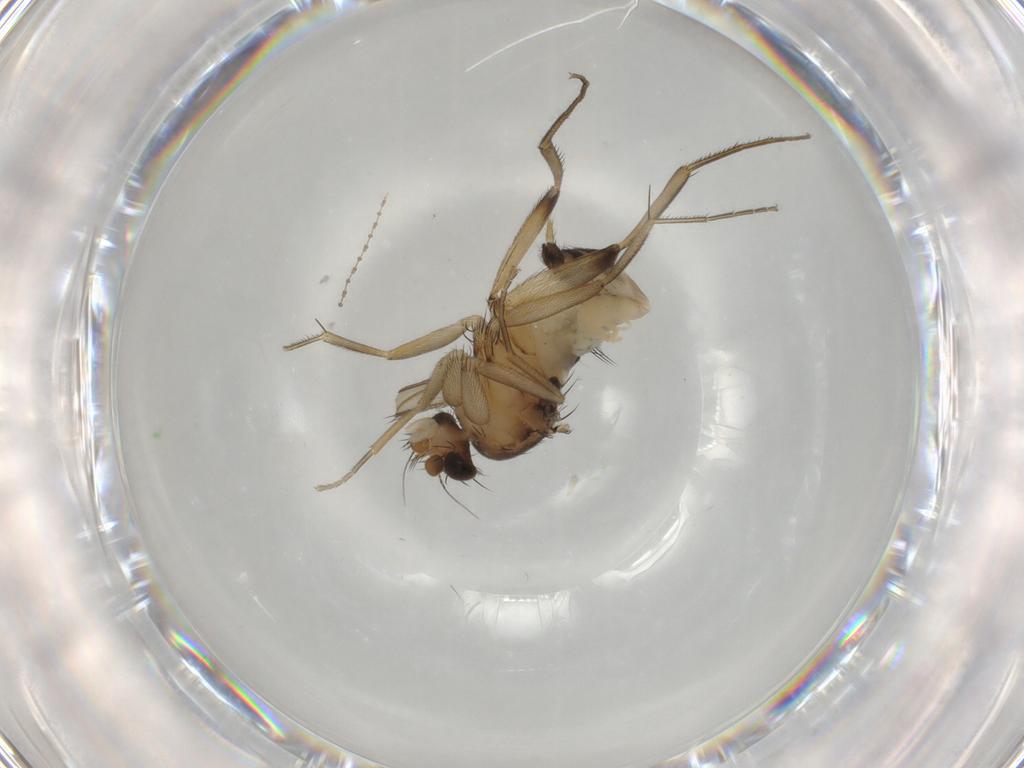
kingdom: Animalia
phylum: Arthropoda
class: Insecta
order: Diptera
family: Phoridae
